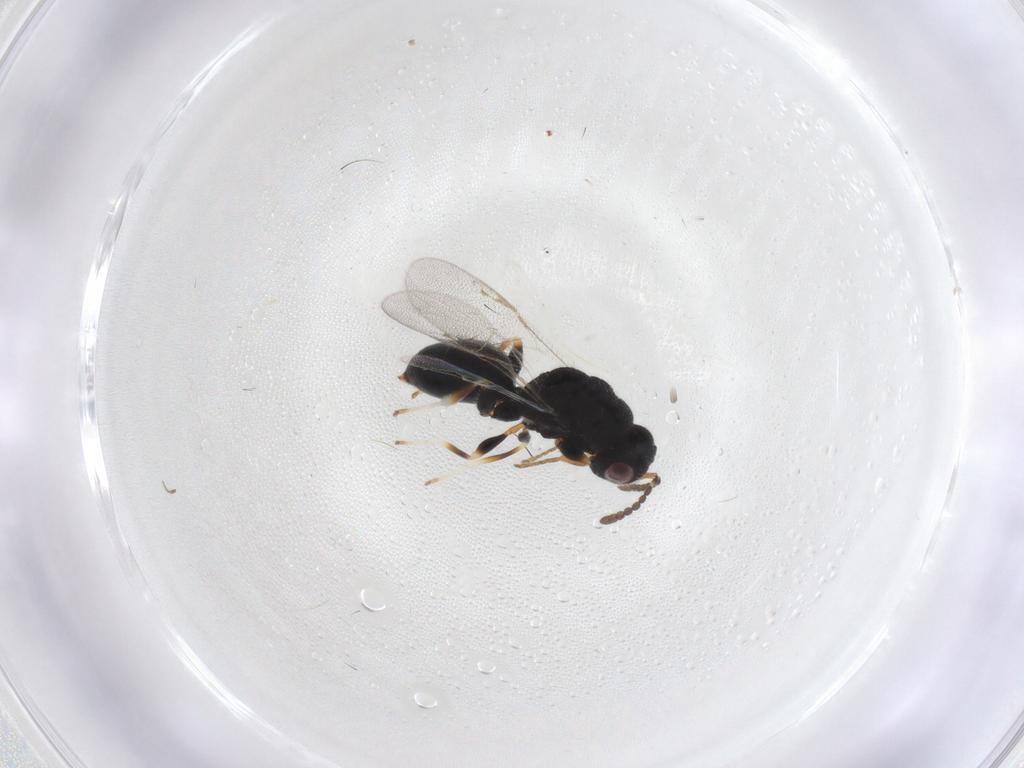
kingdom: Animalia
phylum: Arthropoda
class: Insecta
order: Hymenoptera
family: Eurytomidae
